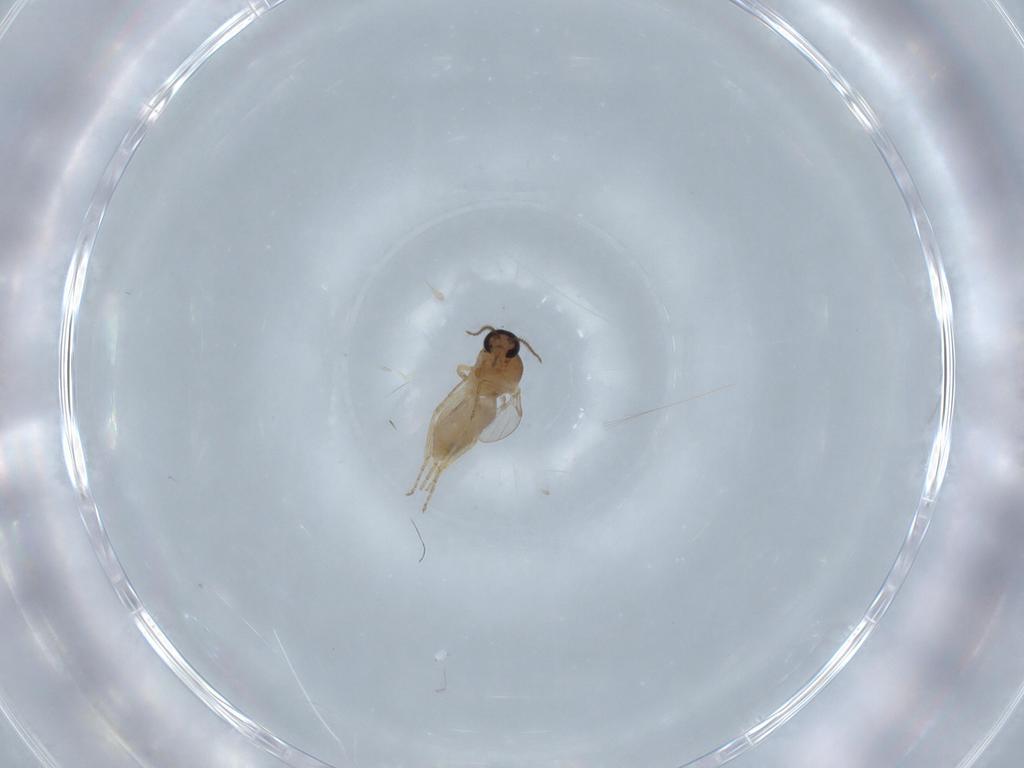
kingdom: Animalia
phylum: Arthropoda
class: Insecta
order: Diptera
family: Ceratopogonidae
